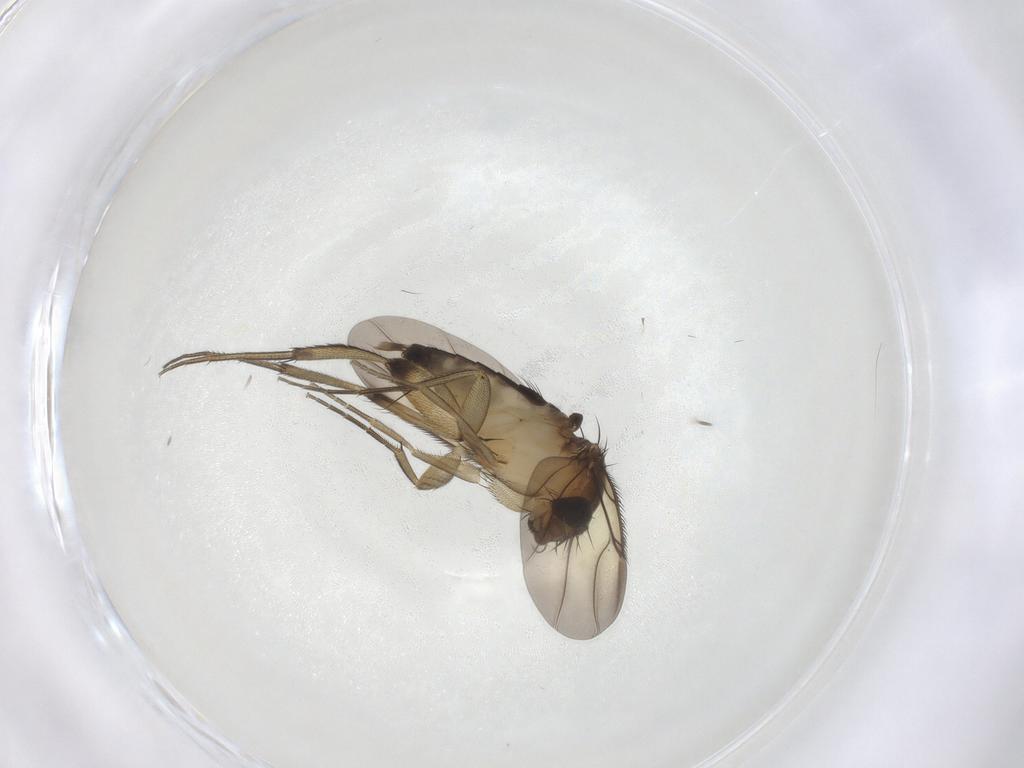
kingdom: Animalia
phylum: Arthropoda
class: Insecta
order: Diptera
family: Phoridae
